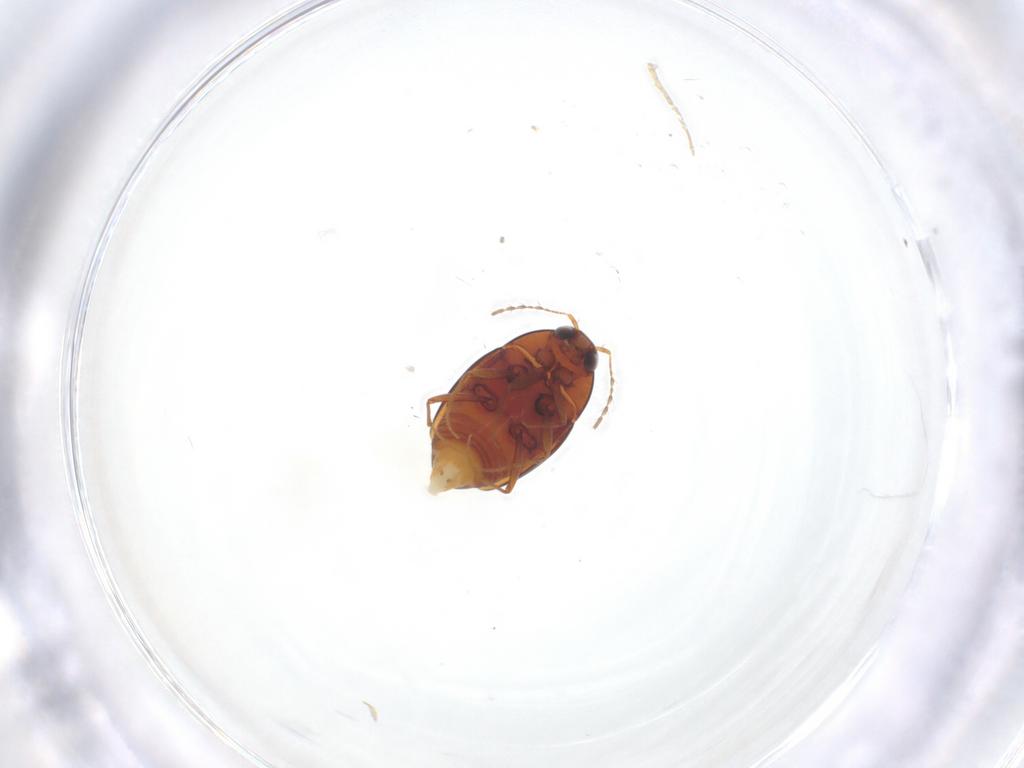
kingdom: Animalia
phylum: Arthropoda
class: Insecta
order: Coleoptera
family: Staphylinidae
